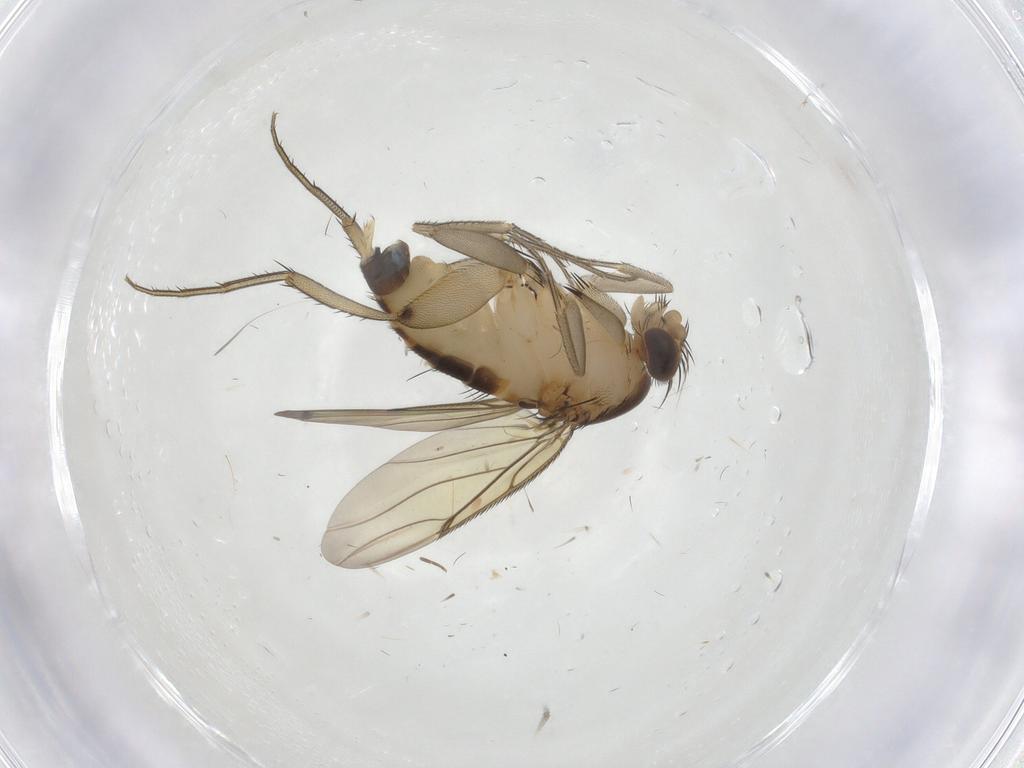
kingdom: Animalia
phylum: Arthropoda
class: Insecta
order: Diptera
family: Phoridae
